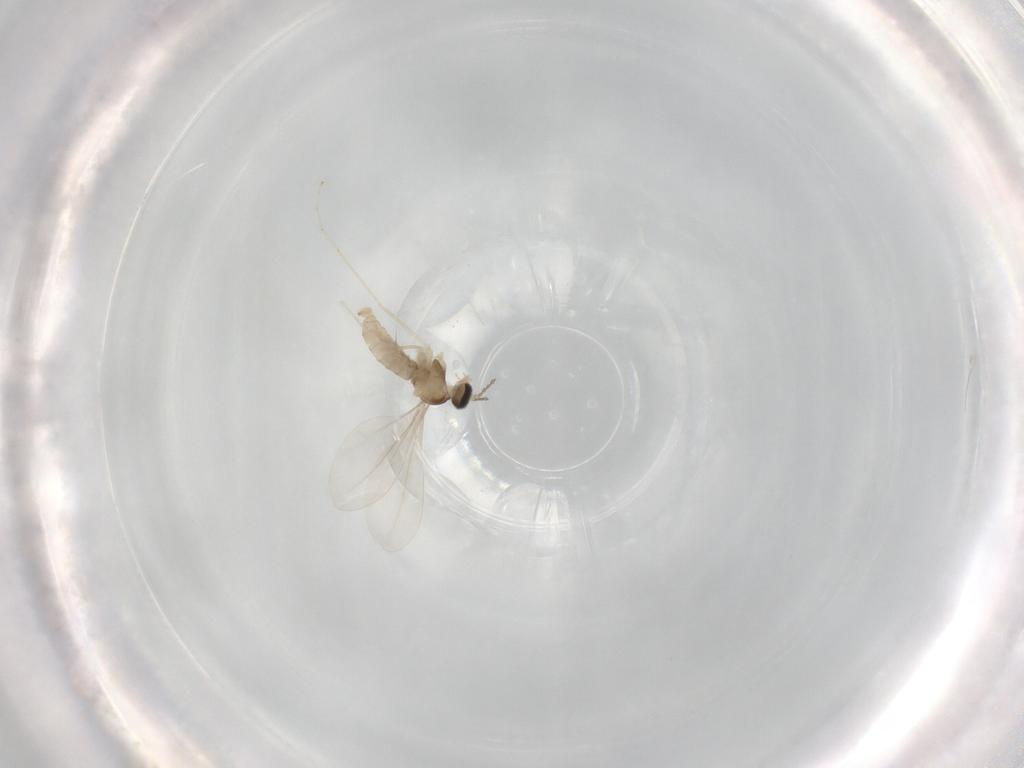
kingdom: Animalia
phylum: Arthropoda
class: Insecta
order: Diptera
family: Cecidomyiidae
